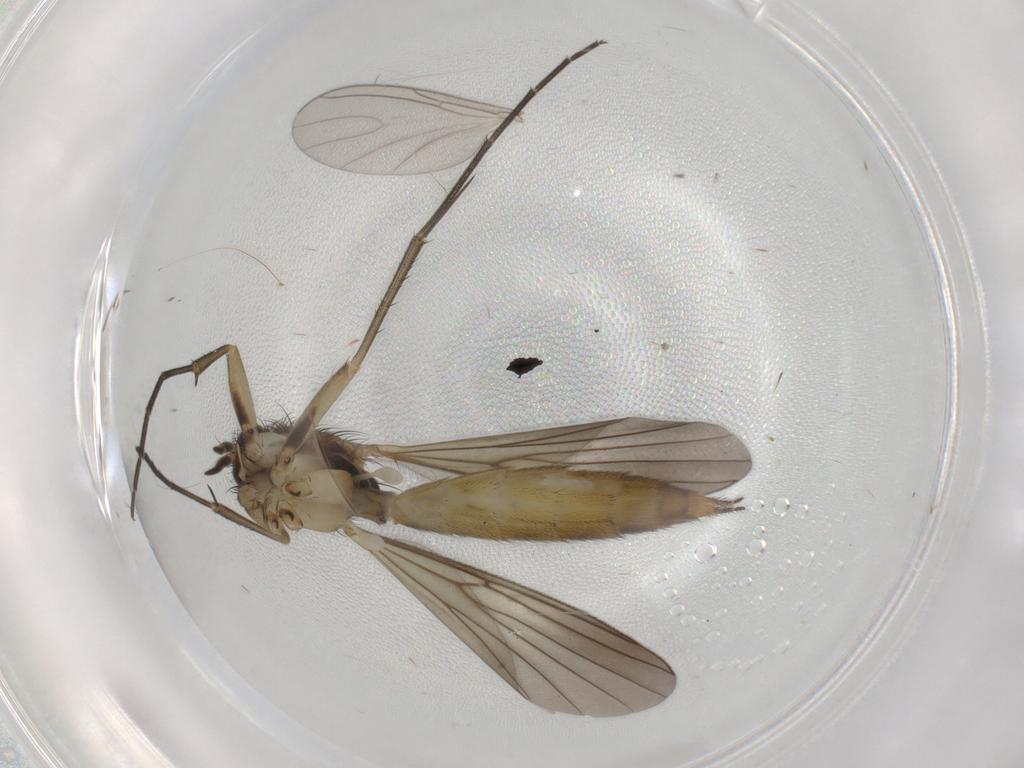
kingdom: Animalia
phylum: Arthropoda
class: Insecta
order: Diptera
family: Mycetophilidae
